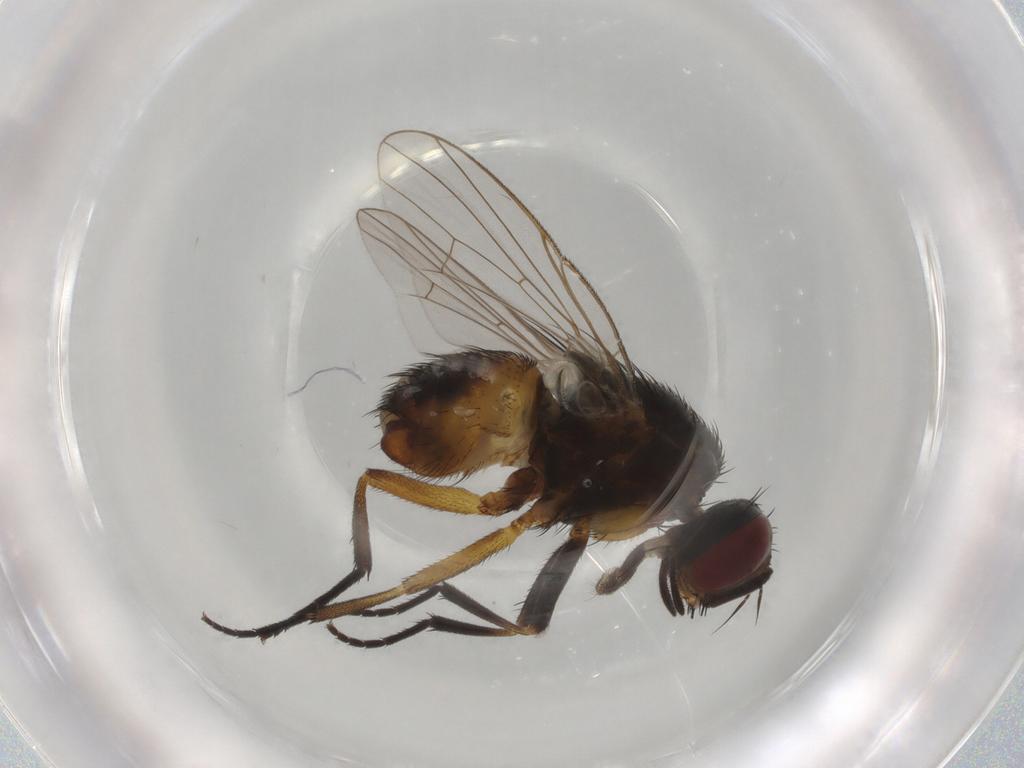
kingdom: Animalia
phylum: Arthropoda
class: Insecta
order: Diptera
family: Muscidae
